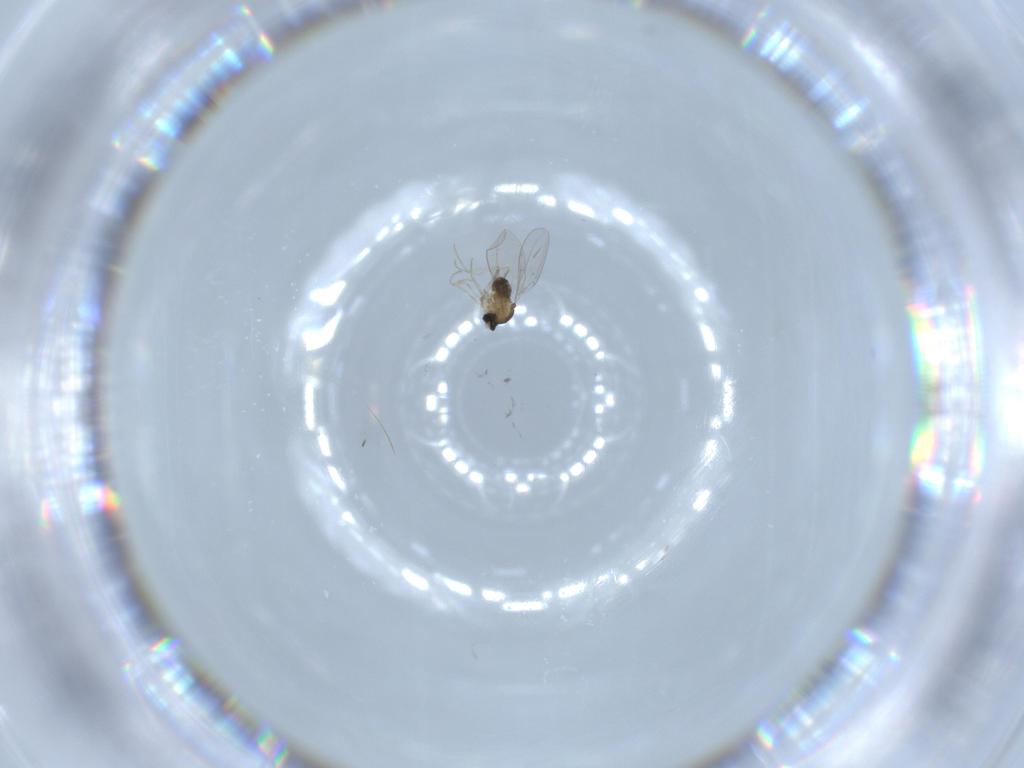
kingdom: Animalia
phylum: Arthropoda
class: Insecta
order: Diptera
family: Cecidomyiidae
